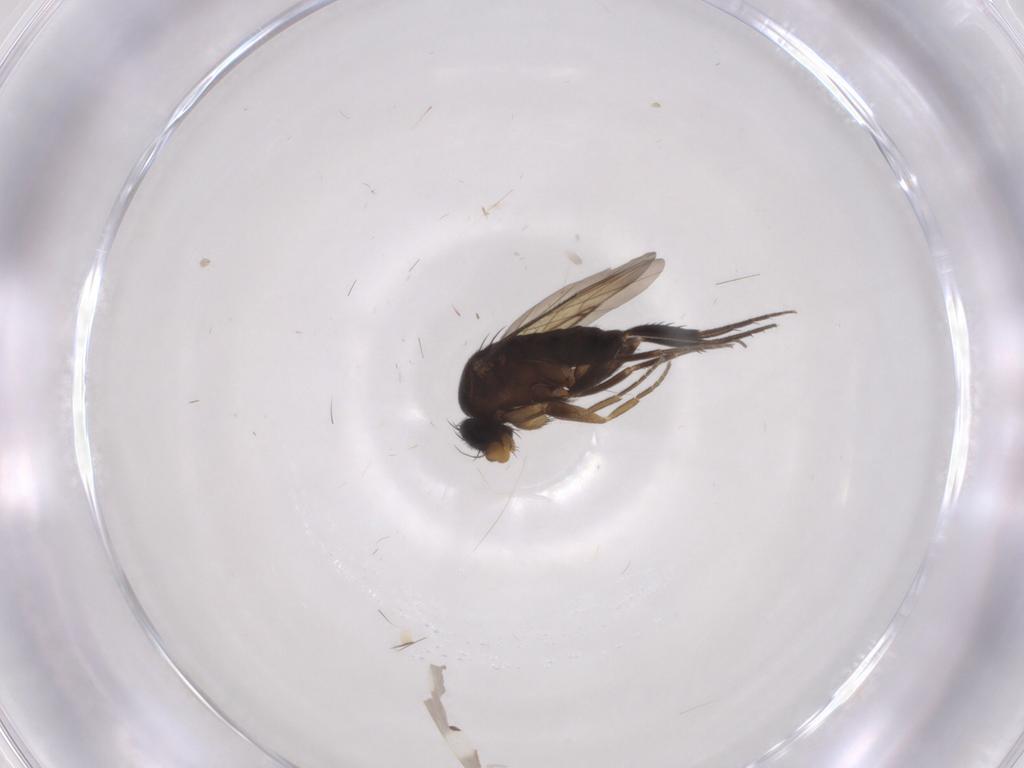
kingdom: Animalia
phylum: Arthropoda
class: Insecta
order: Diptera
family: Limoniidae
